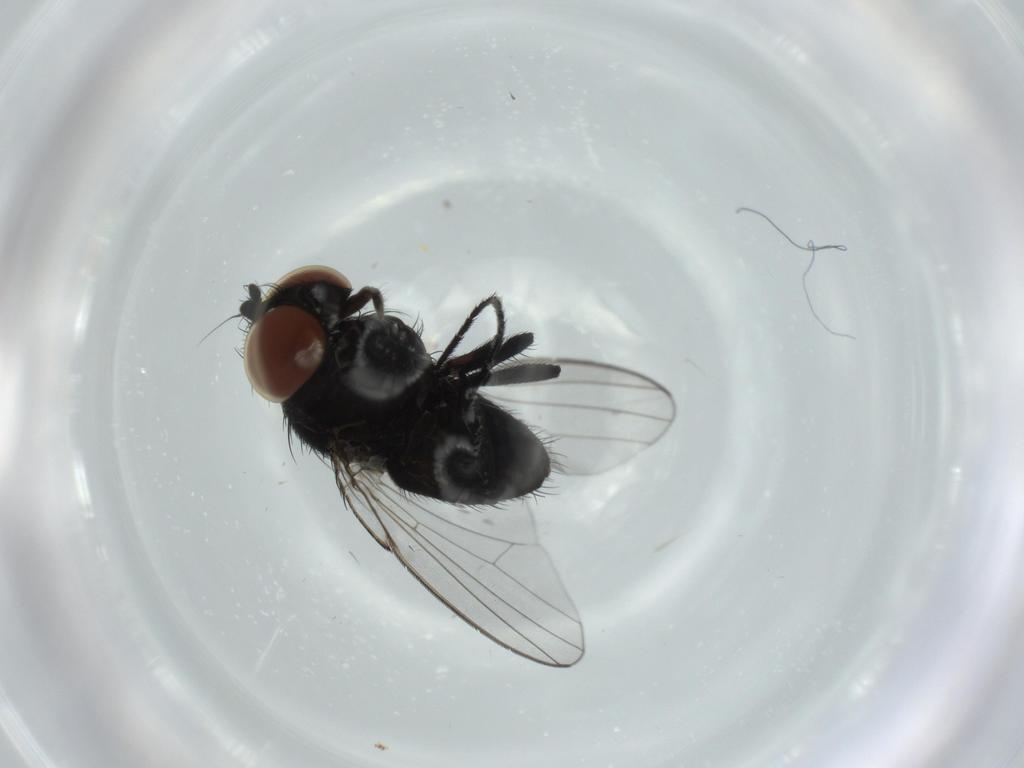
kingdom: Animalia
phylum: Arthropoda
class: Insecta
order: Diptera
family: Milichiidae
